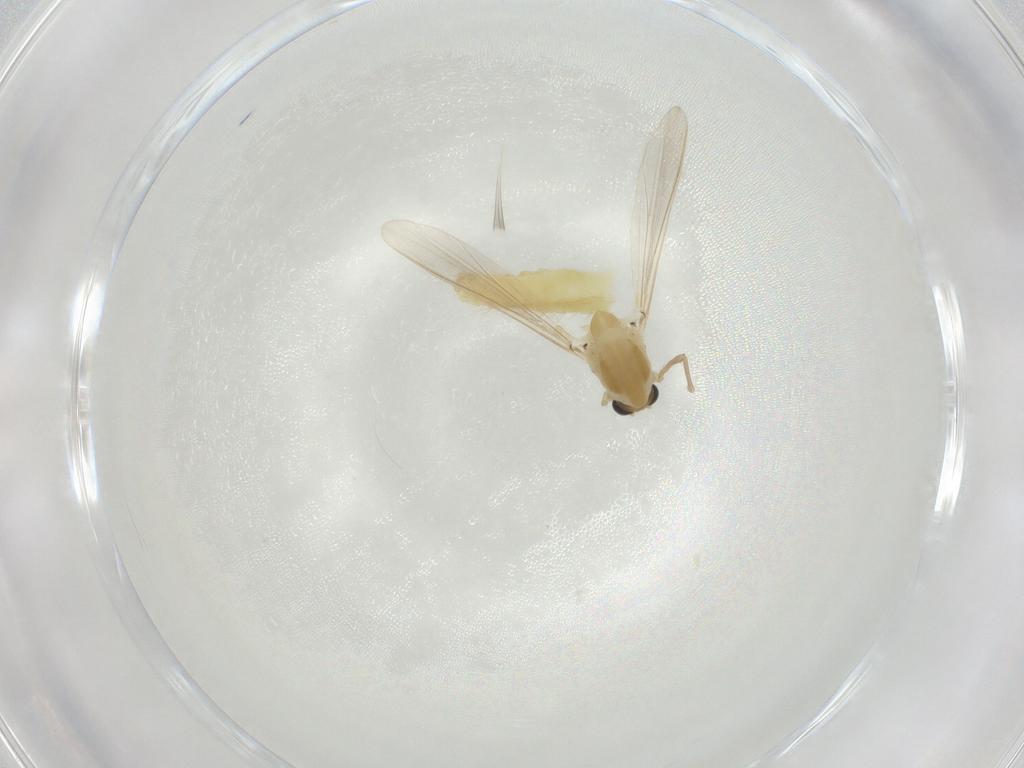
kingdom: Animalia
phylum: Arthropoda
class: Insecta
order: Diptera
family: Chironomidae
